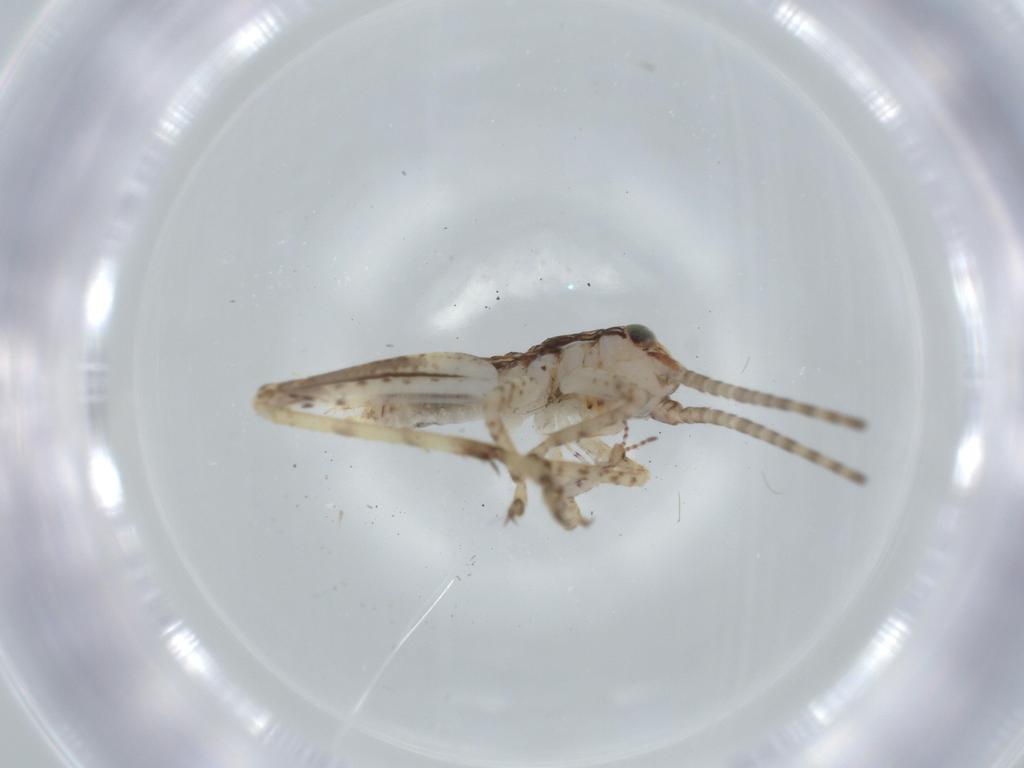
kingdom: Animalia
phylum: Arthropoda
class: Insecta
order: Orthoptera
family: Gryllidae
